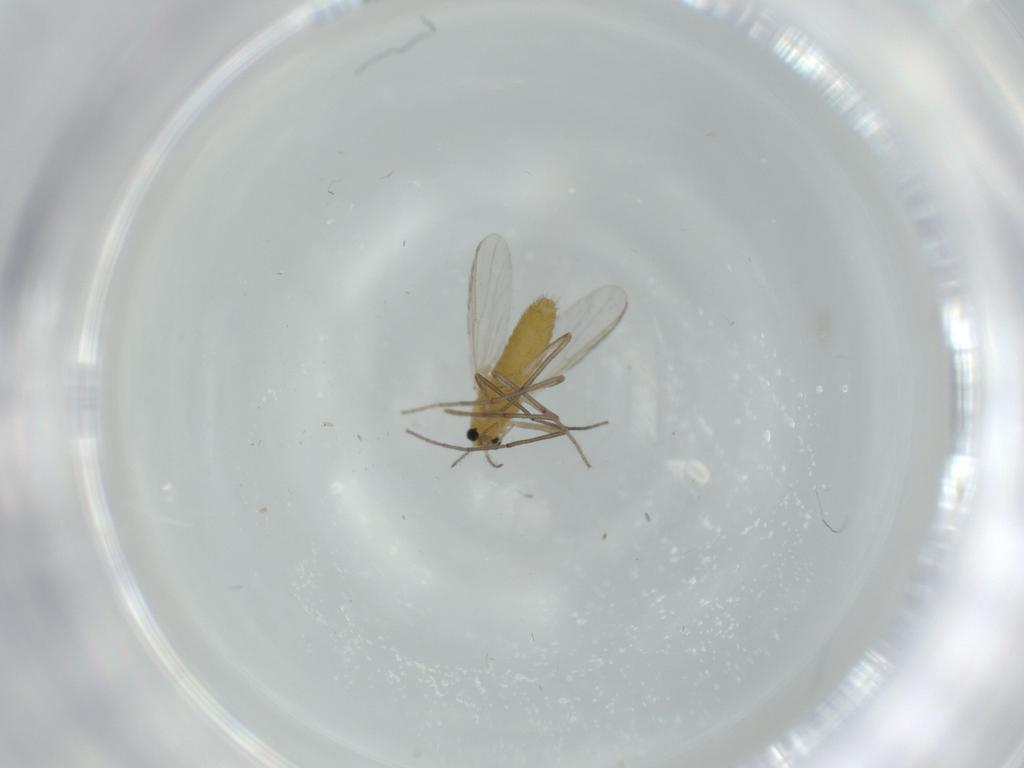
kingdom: Animalia
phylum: Arthropoda
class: Insecta
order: Diptera
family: Chironomidae
